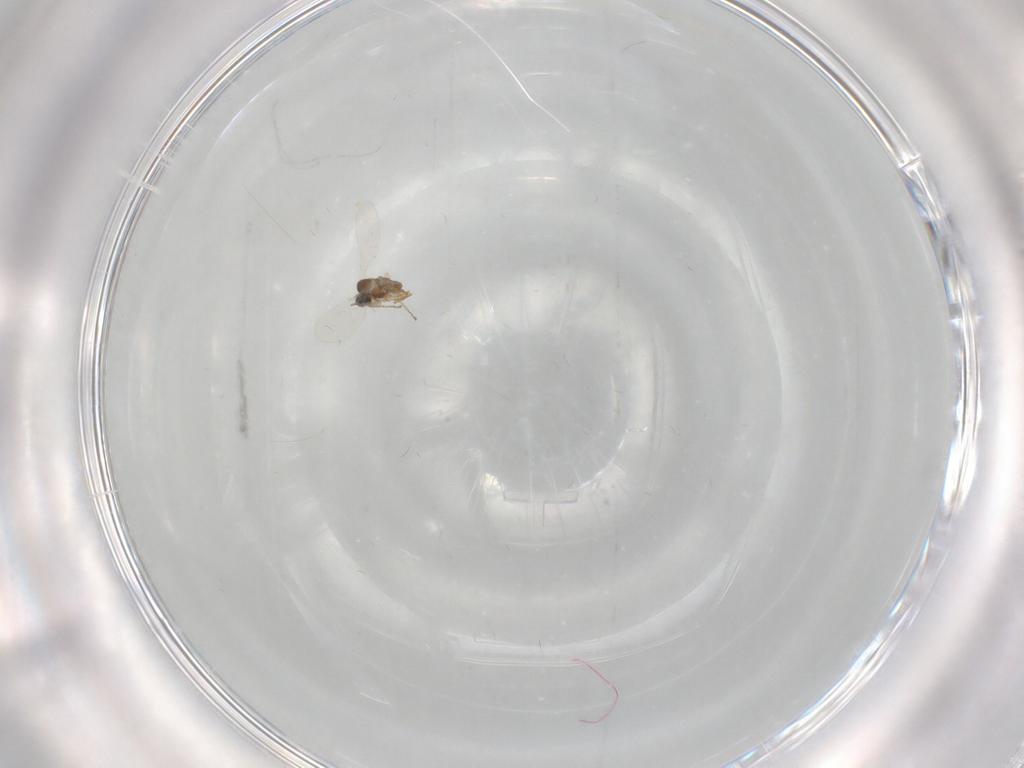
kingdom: Animalia
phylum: Arthropoda
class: Insecta
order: Diptera
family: Cecidomyiidae
